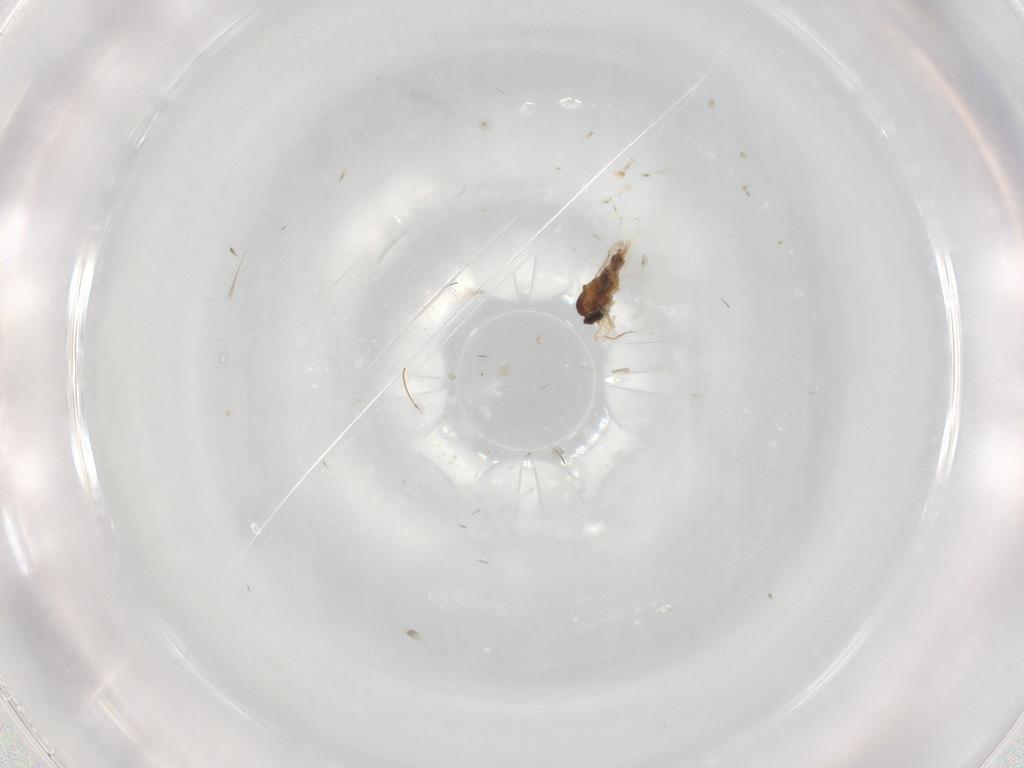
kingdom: Animalia
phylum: Arthropoda
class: Insecta
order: Diptera
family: Cecidomyiidae
